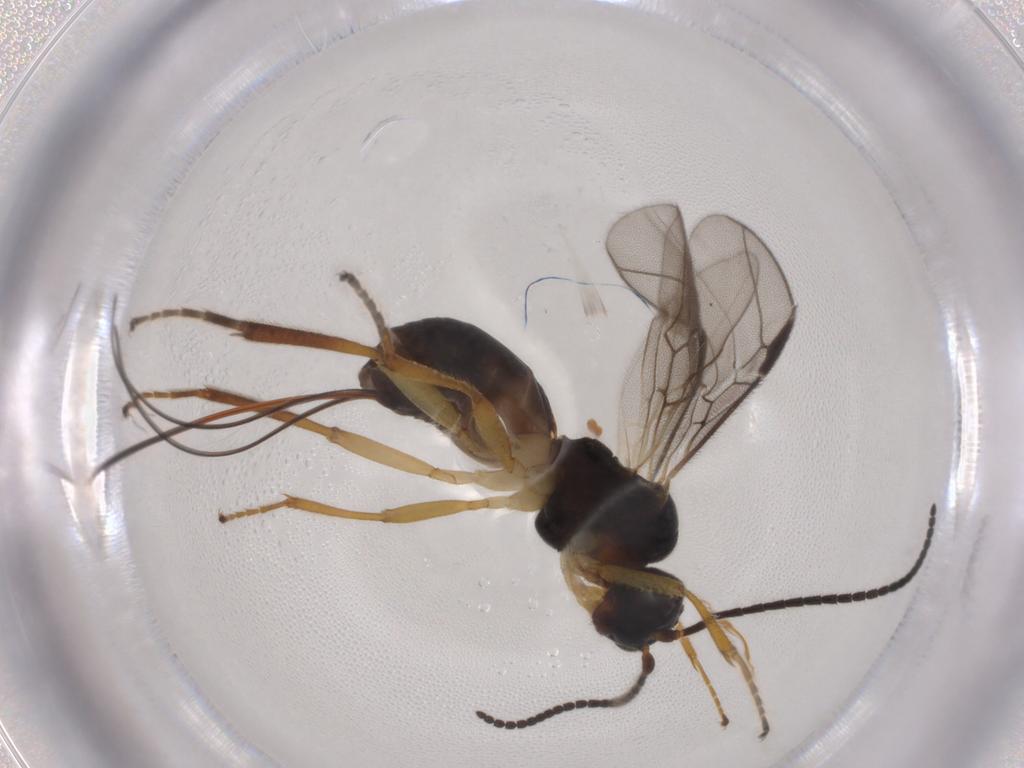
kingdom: Animalia
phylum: Arthropoda
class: Insecta
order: Hymenoptera
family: Braconidae
